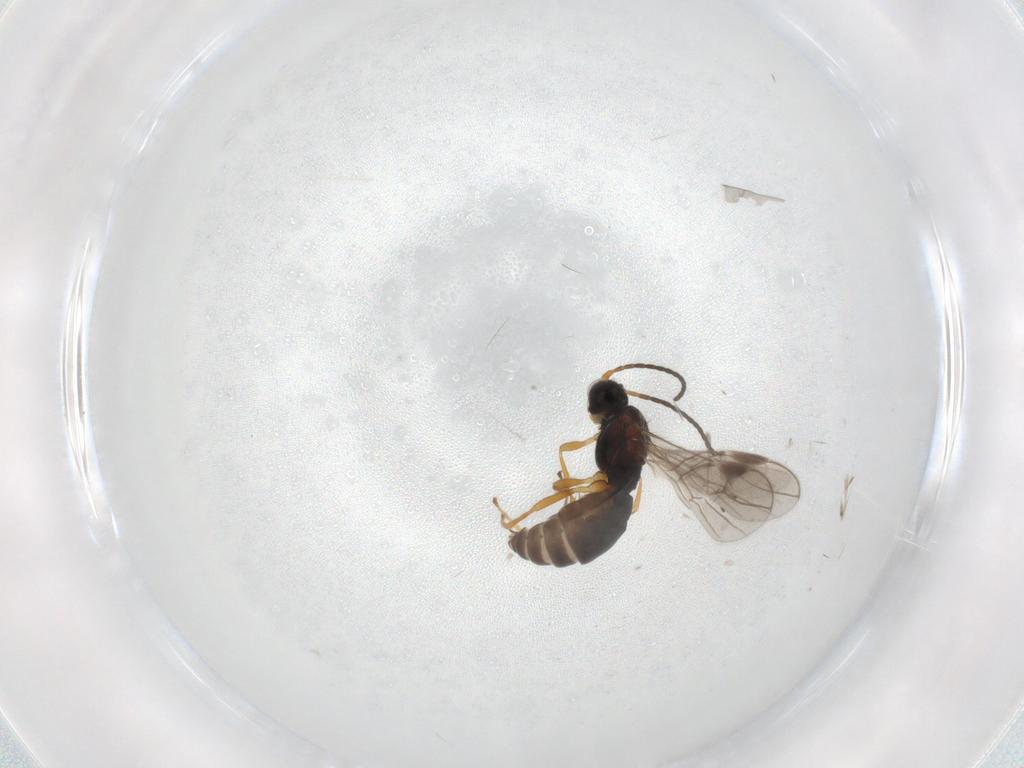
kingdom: Animalia
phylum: Arthropoda
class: Insecta
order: Hymenoptera
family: Braconidae
